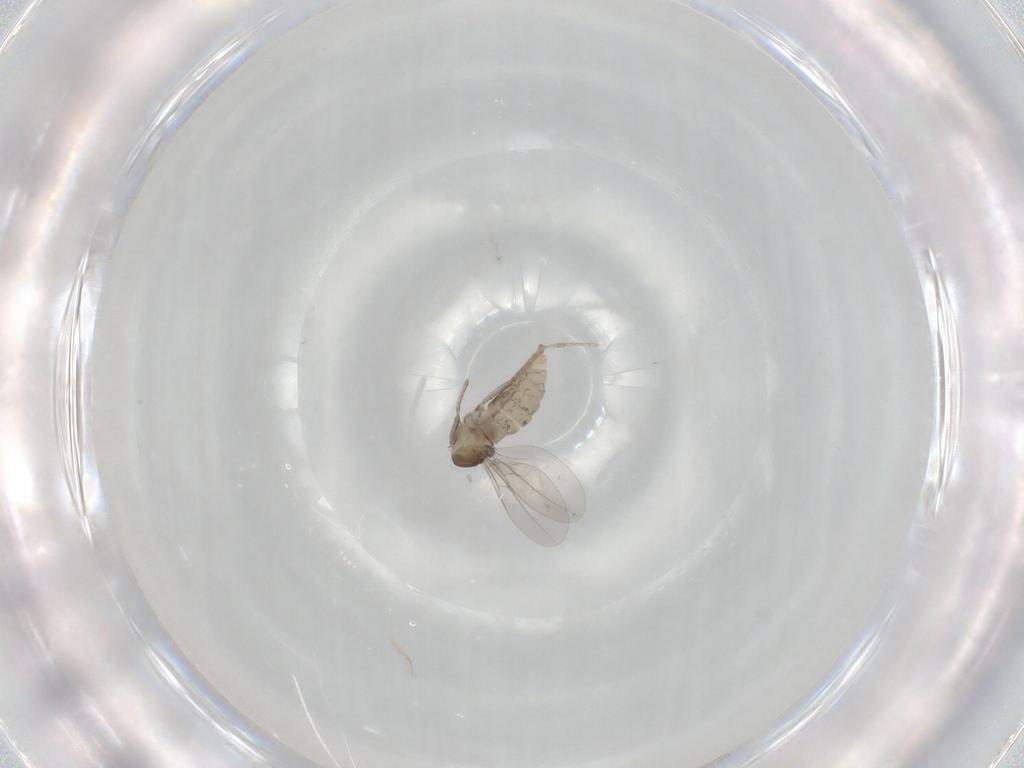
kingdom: Animalia
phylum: Arthropoda
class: Insecta
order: Diptera
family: Cecidomyiidae
